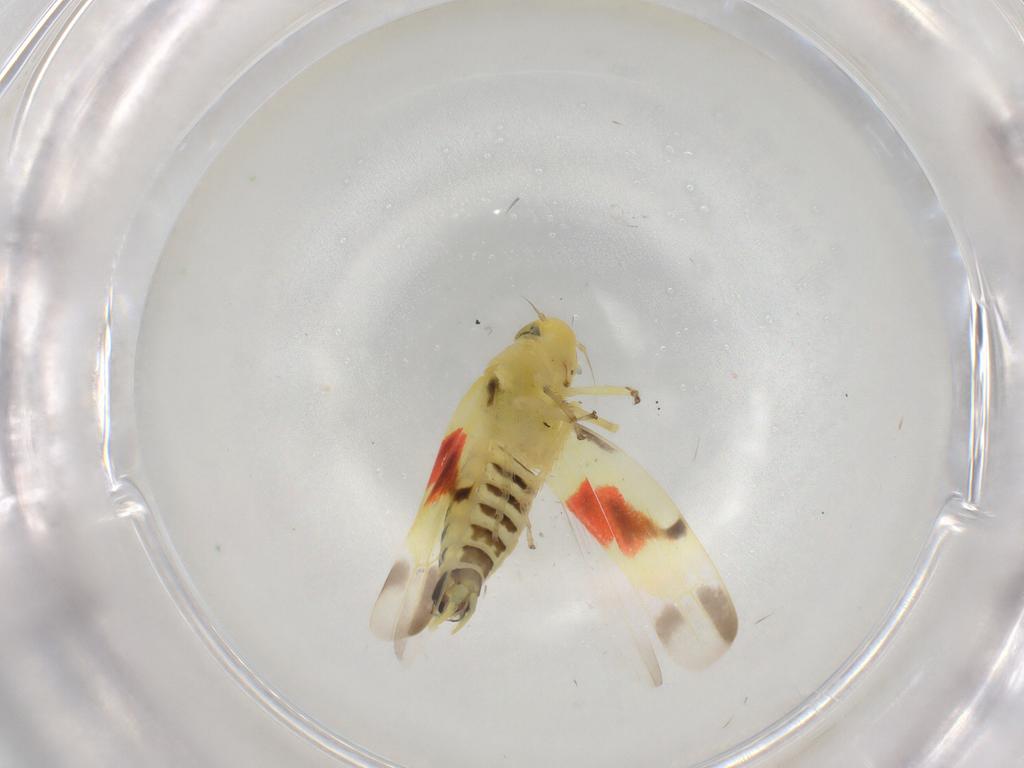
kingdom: Animalia
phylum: Arthropoda
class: Insecta
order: Hemiptera
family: Cicadellidae
